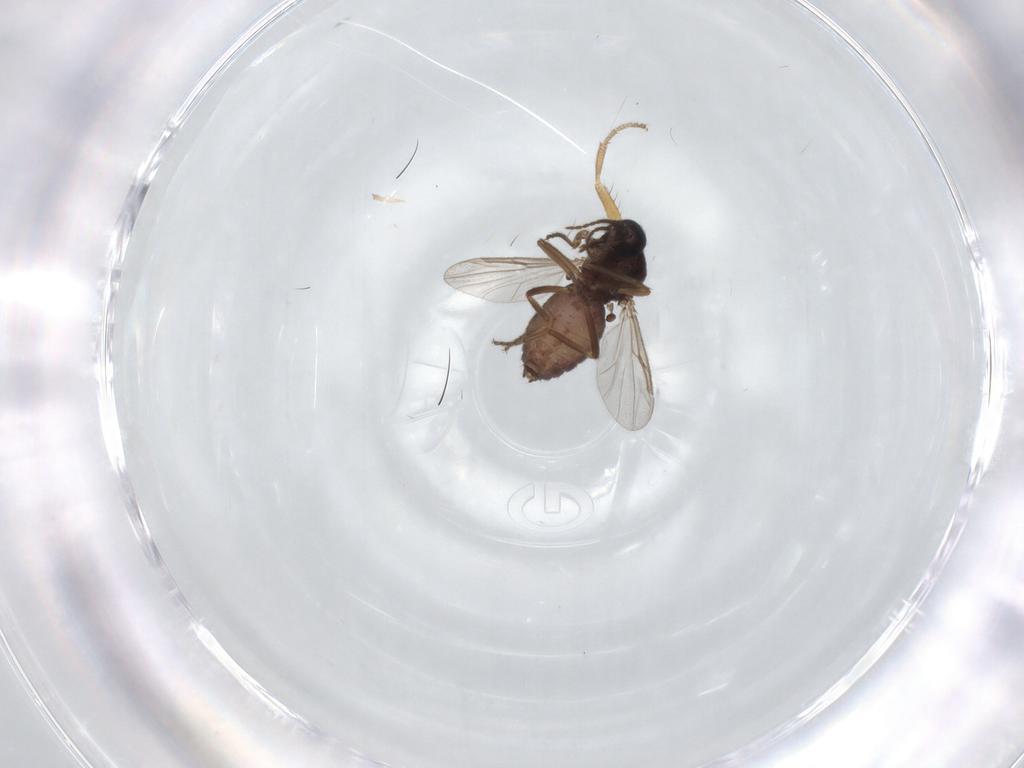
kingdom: Animalia
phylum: Arthropoda
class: Insecta
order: Diptera
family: Ceratopogonidae
